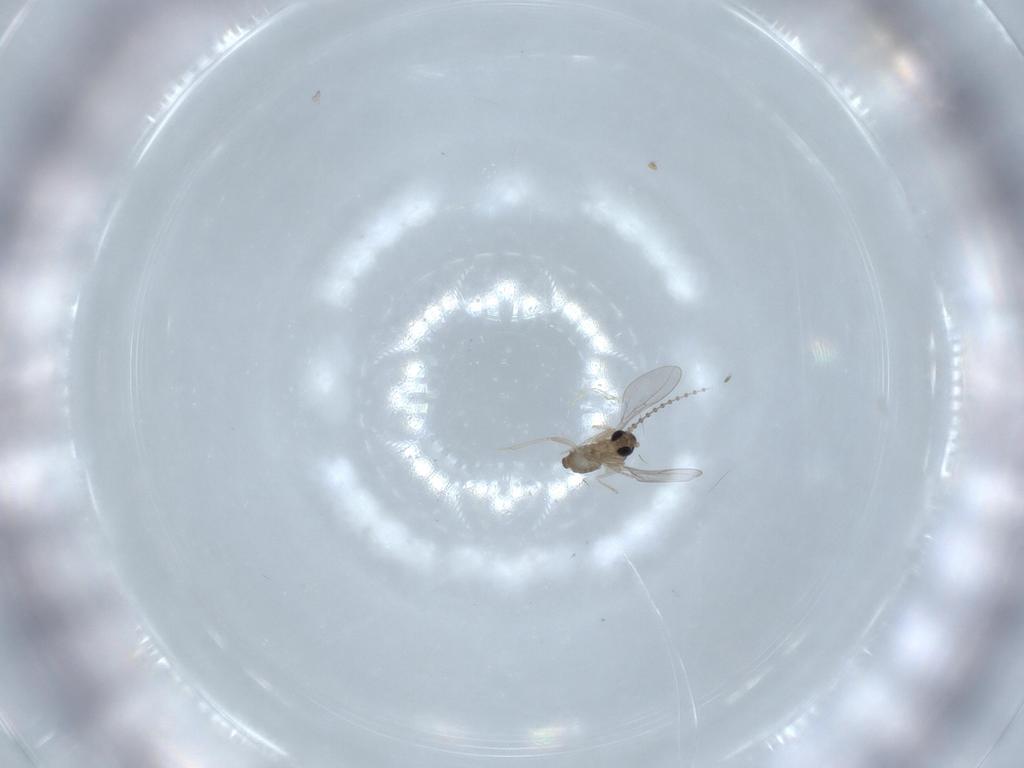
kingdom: Animalia
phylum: Arthropoda
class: Insecta
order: Diptera
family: Cecidomyiidae
